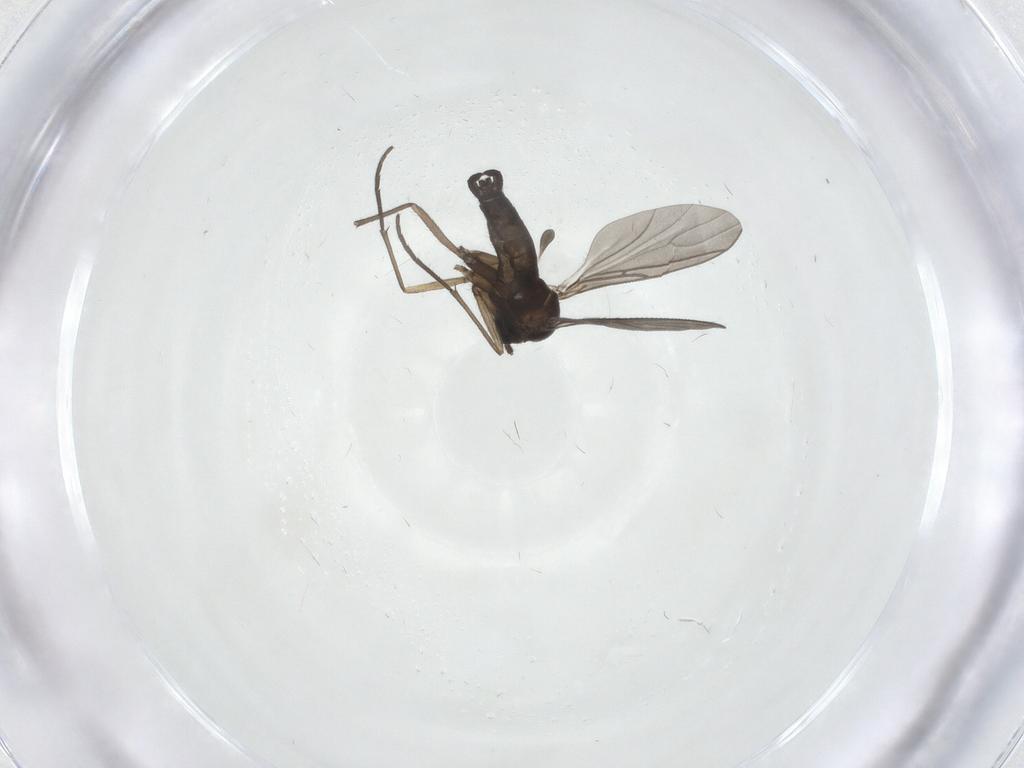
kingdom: Animalia
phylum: Arthropoda
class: Insecta
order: Diptera
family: Sciaridae
